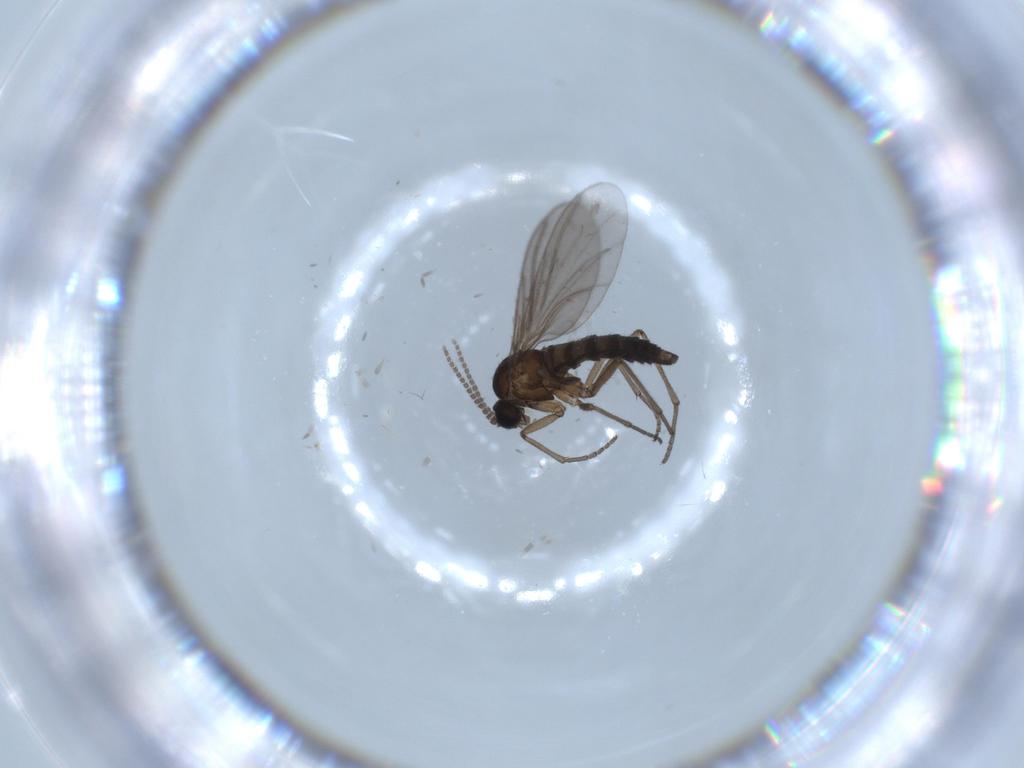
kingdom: Animalia
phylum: Arthropoda
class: Insecta
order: Diptera
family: Sciaridae
